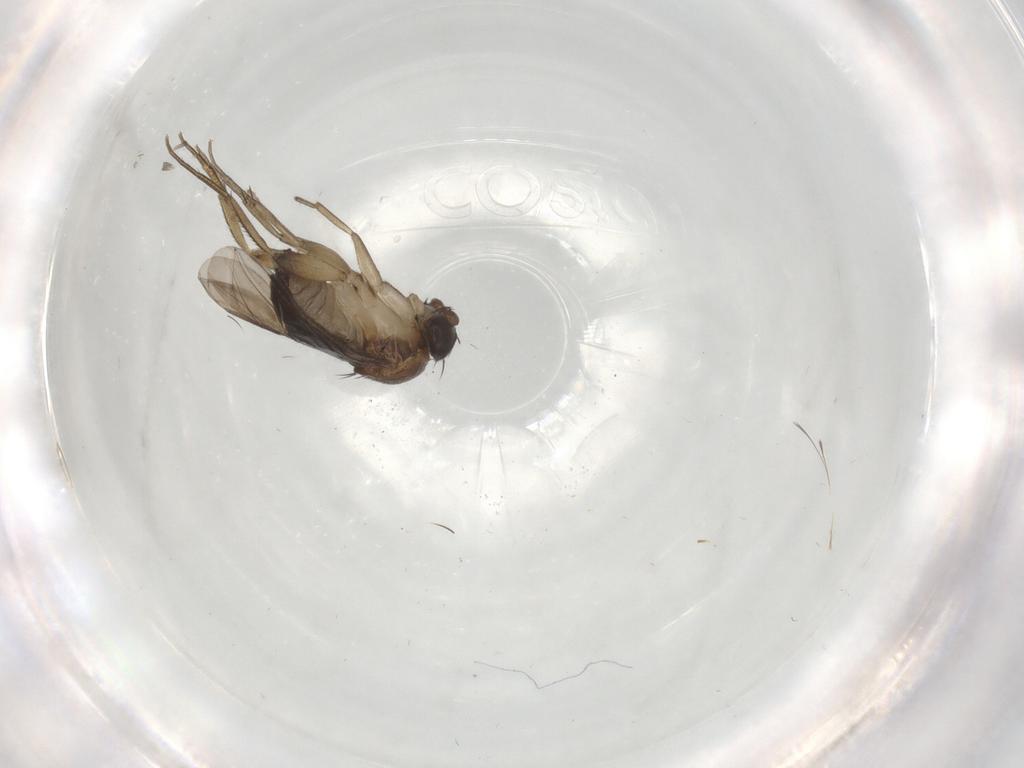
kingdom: Animalia
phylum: Arthropoda
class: Insecta
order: Diptera
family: Phoridae
